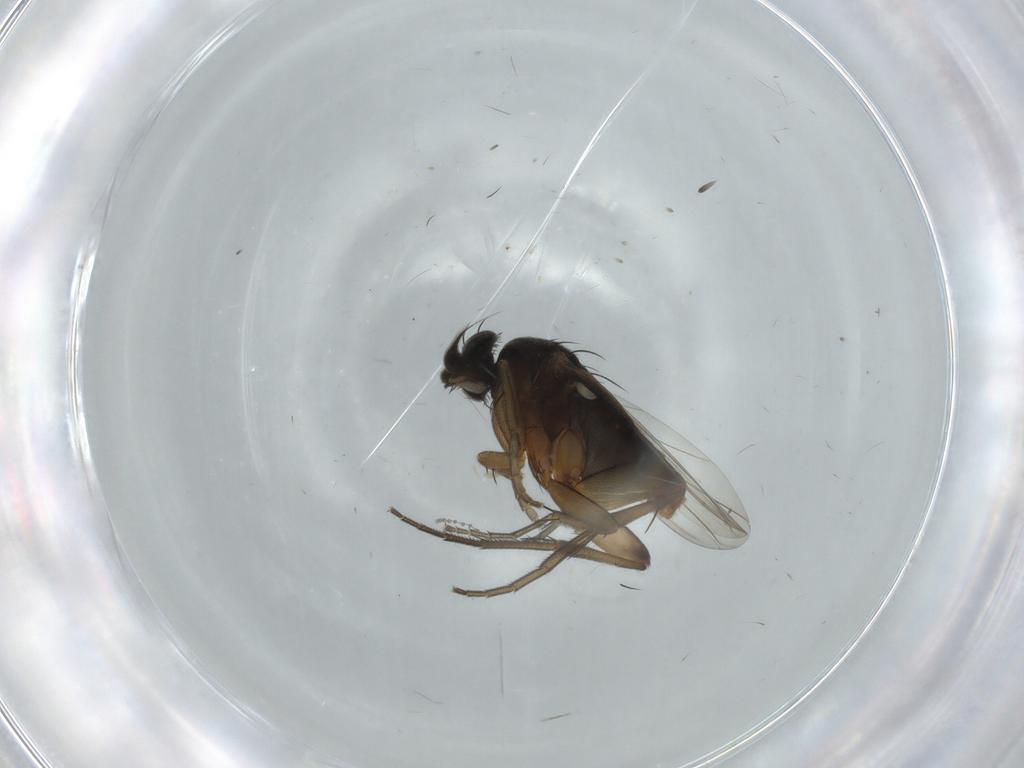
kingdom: Animalia
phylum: Arthropoda
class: Insecta
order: Diptera
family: Phoridae
